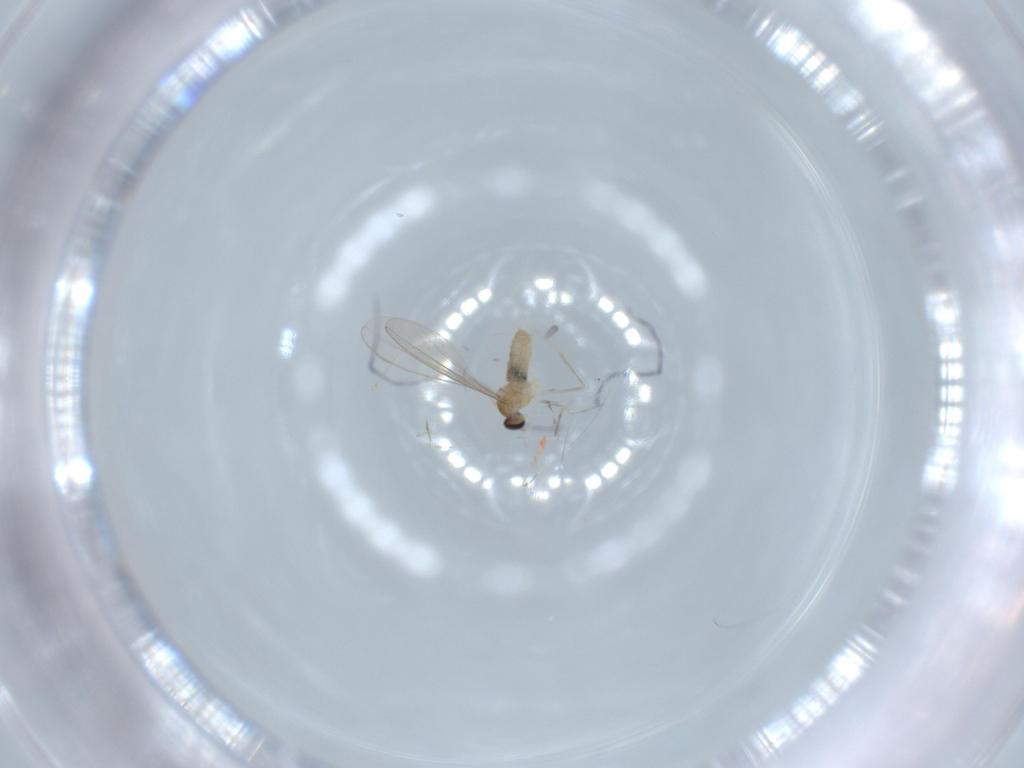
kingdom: Animalia
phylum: Arthropoda
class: Insecta
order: Diptera
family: Cecidomyiidae
